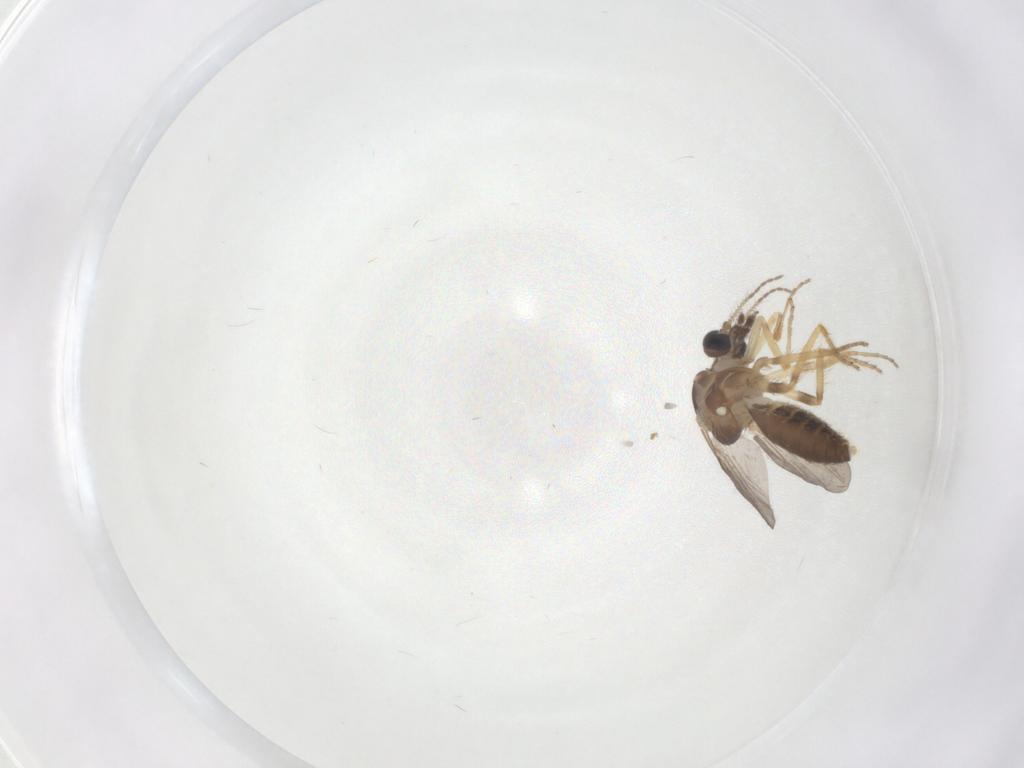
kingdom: Animalia
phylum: Arthropoda
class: Insecta
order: Diptera
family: Ceratopogonidae
